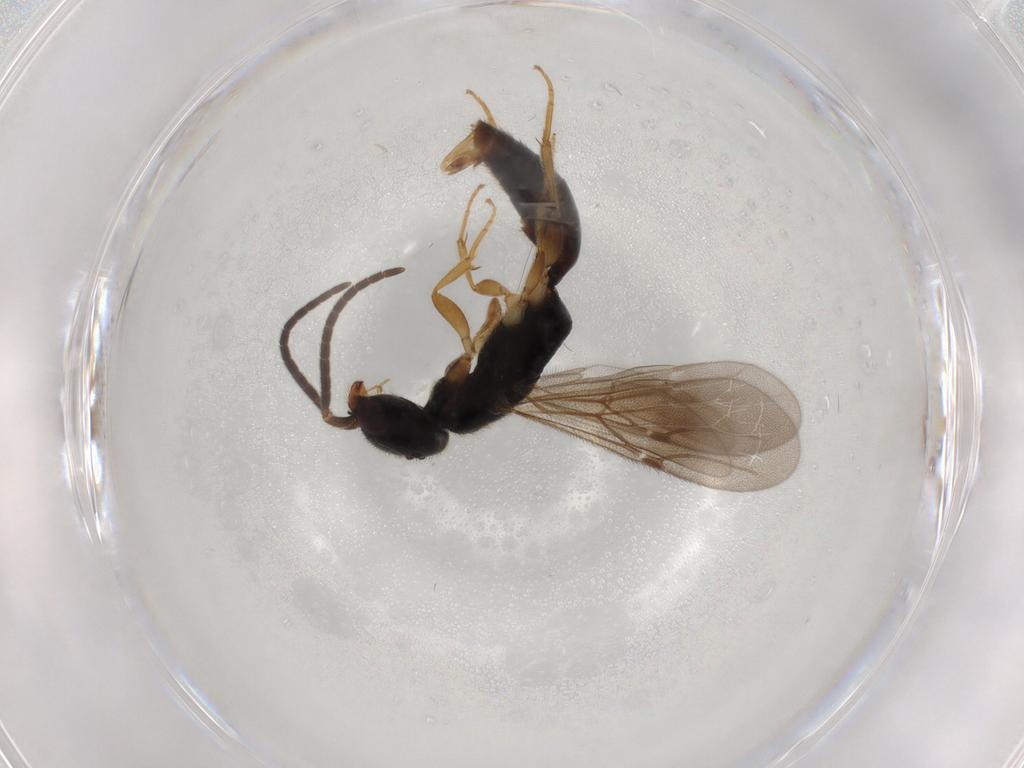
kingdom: Animalia
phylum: Arthropoda
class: Insecta
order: Hymenoptera
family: Bethylidae
